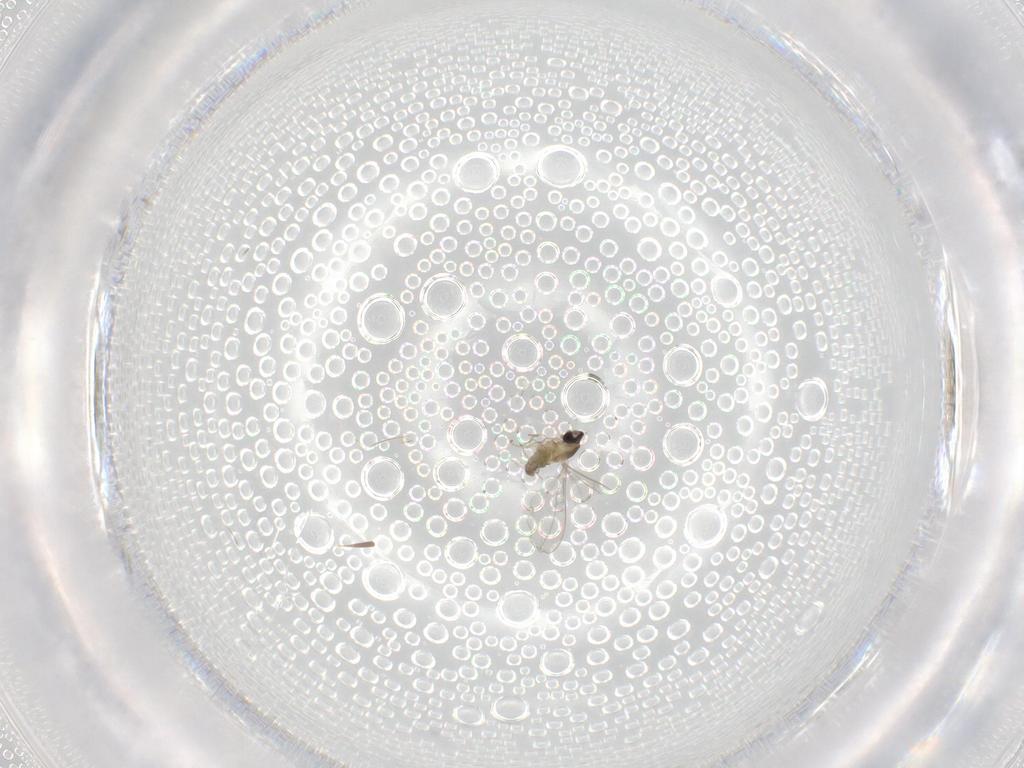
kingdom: Animalia
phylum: Arthropoda
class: Insecta
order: Diptera
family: Cecidomyiidae
